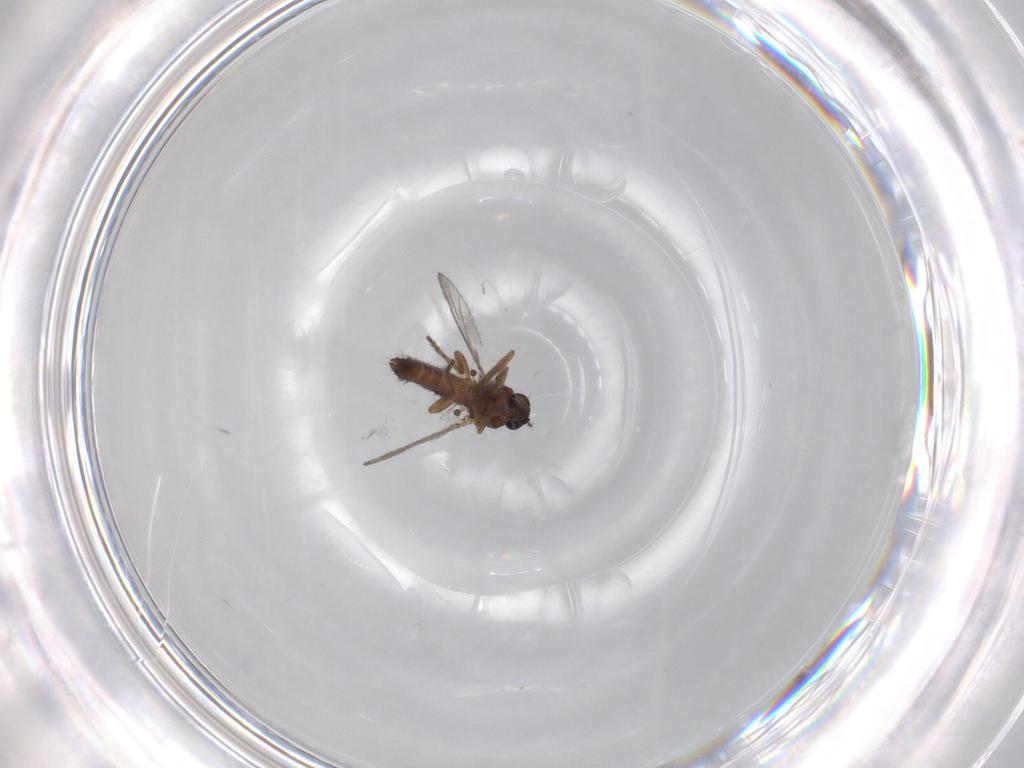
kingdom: Animalia
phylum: Arthropoda
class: Insecta
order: Diptera
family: Ceratopogonidae
